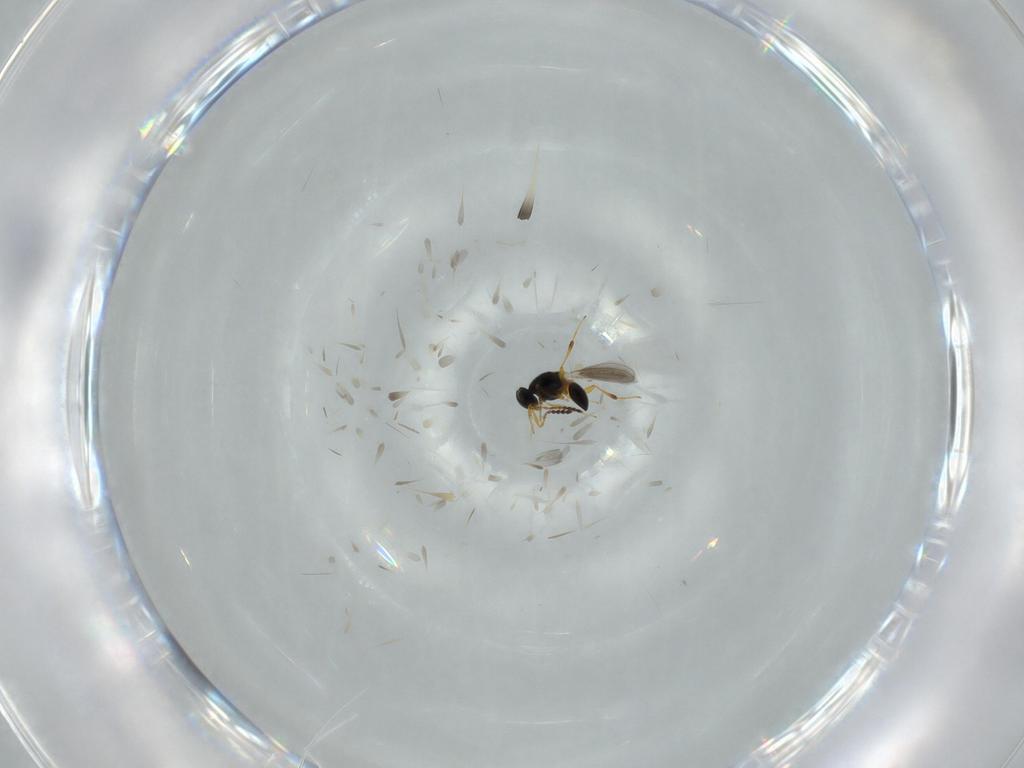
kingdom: Animalia
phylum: Arthropoda
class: Insecta
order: Hymenoptera
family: Platygastridae
